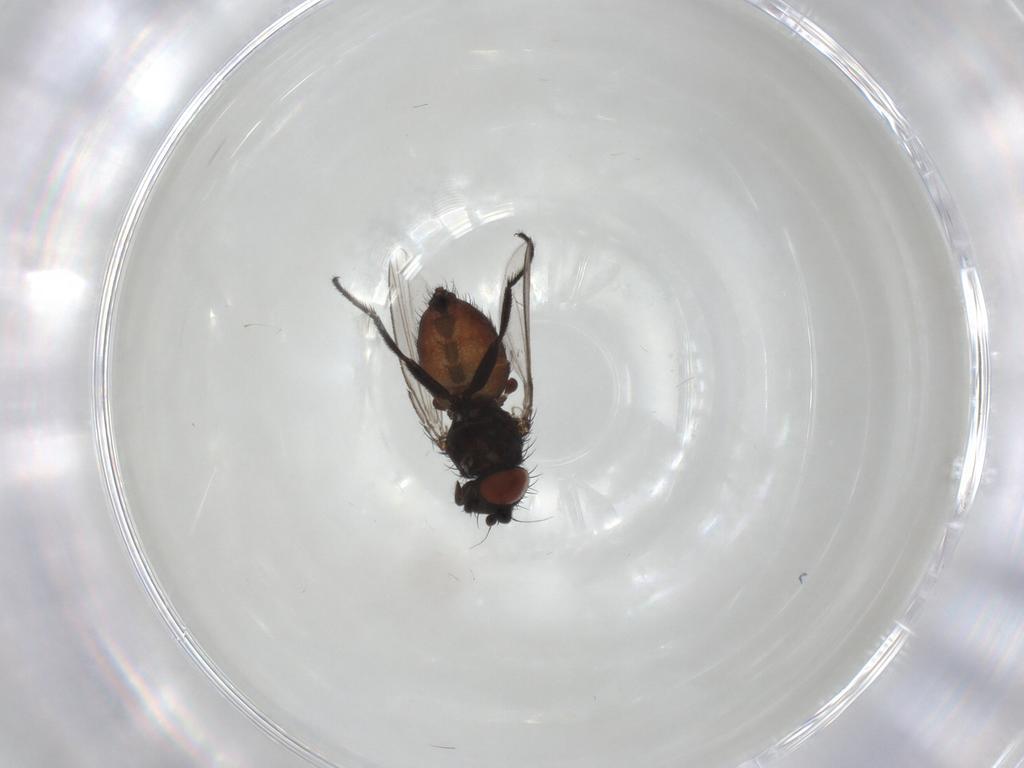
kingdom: Animalia
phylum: Arthropoda
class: Insecta
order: Diptera
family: Milichiidae
